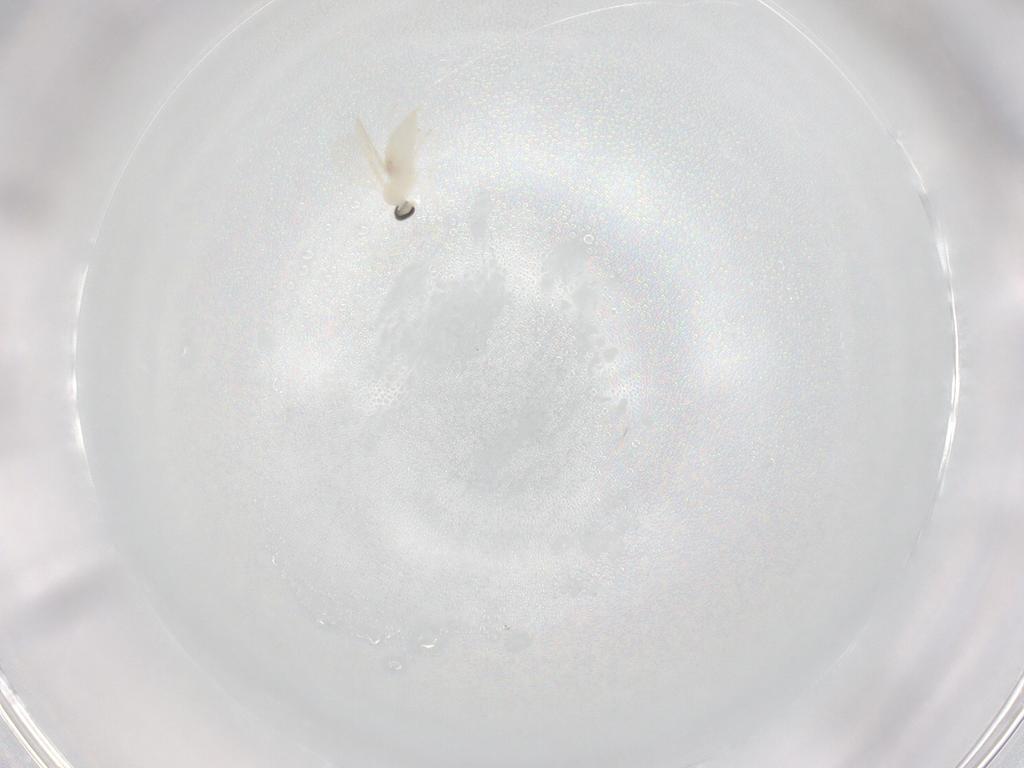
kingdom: Animalia
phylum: Arthropoda
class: Insecta
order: Diptera
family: Cecidomyiidae
